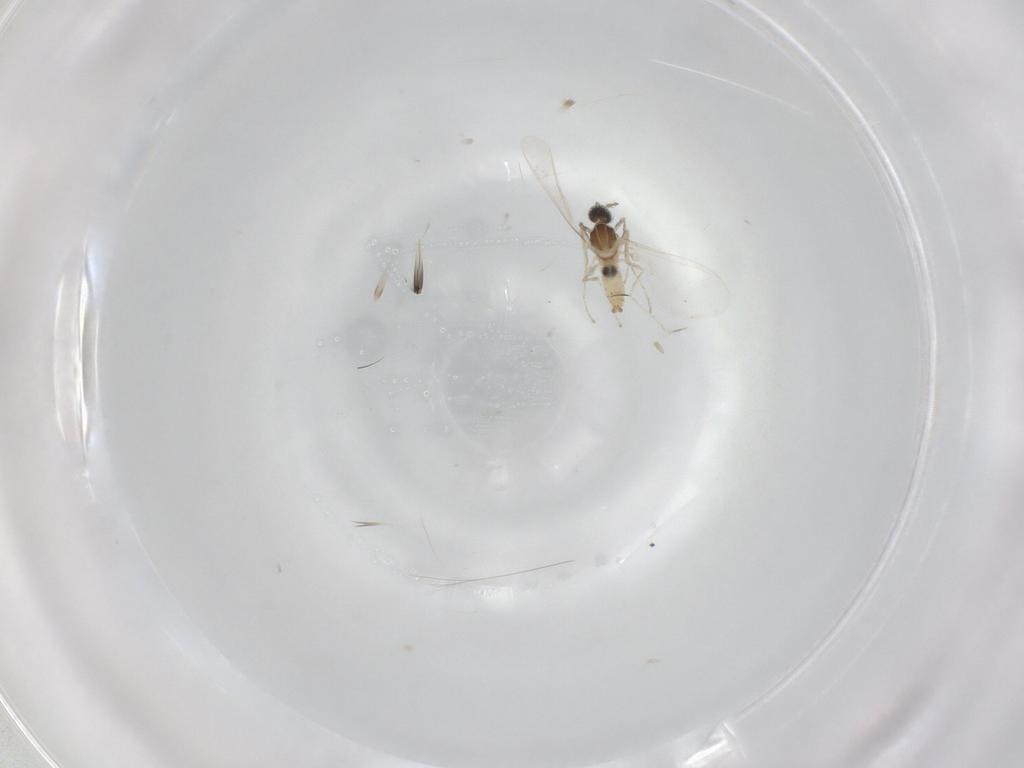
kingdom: Animalia
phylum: Arthropoda
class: Insecta
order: Diptera
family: Cecidomyiidae
